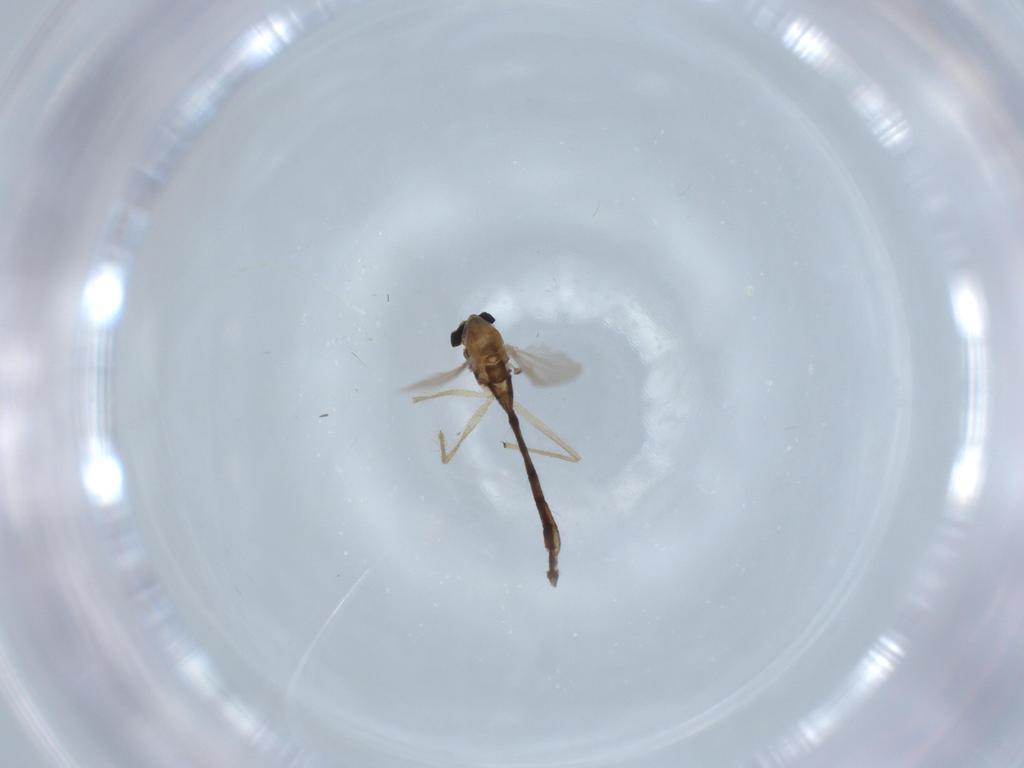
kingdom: Animalia
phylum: Arthropoda
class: Insecta
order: Diptera
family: Chironomidae
